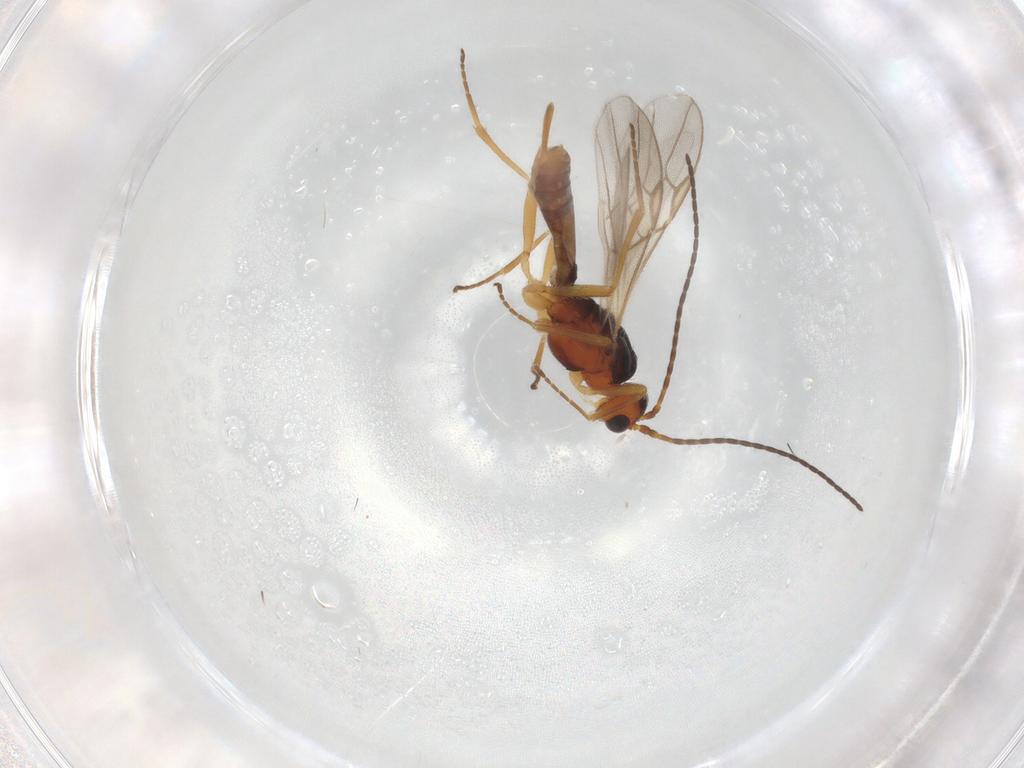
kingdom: Animalia
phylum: Arthropoda
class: Insecta
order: Hymenoptera
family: Braconidae
